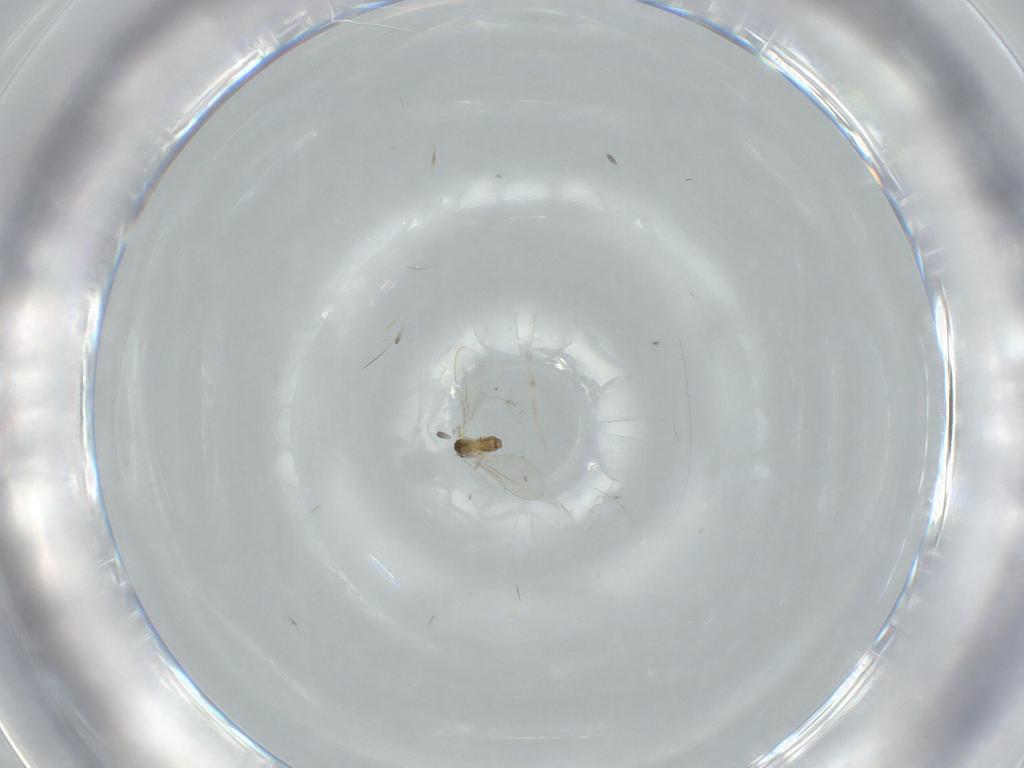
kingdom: Animalia
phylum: Arthropoda
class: Insecta
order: Diptera
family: Cecidomyiidae
